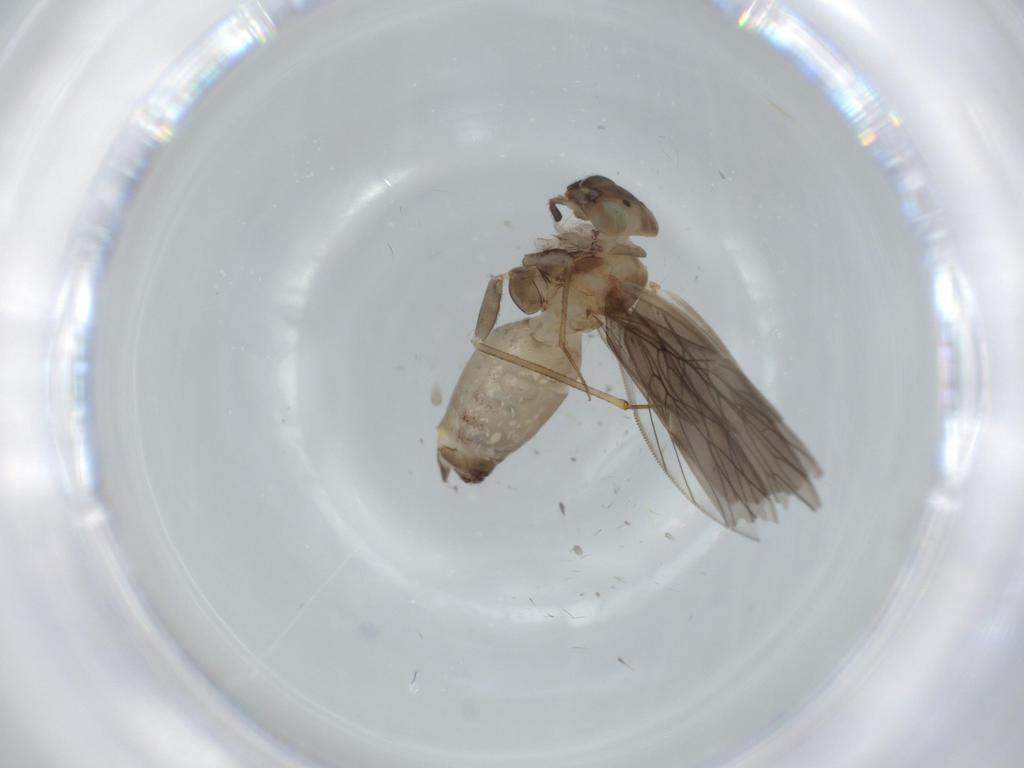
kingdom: Animalia
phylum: Arthropoda
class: Insecta
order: Psocodea
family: Lepidopsocidae
